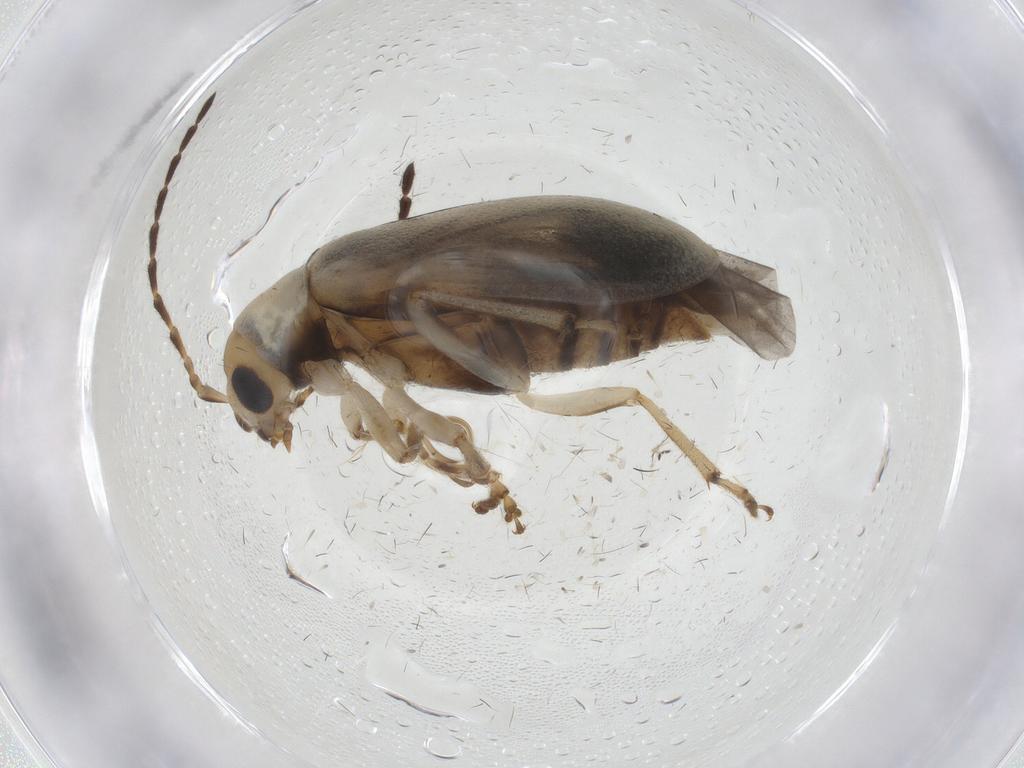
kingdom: Animalia
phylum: Arthropoda
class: Insecta
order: Coleoptera
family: Chrysomelidae
